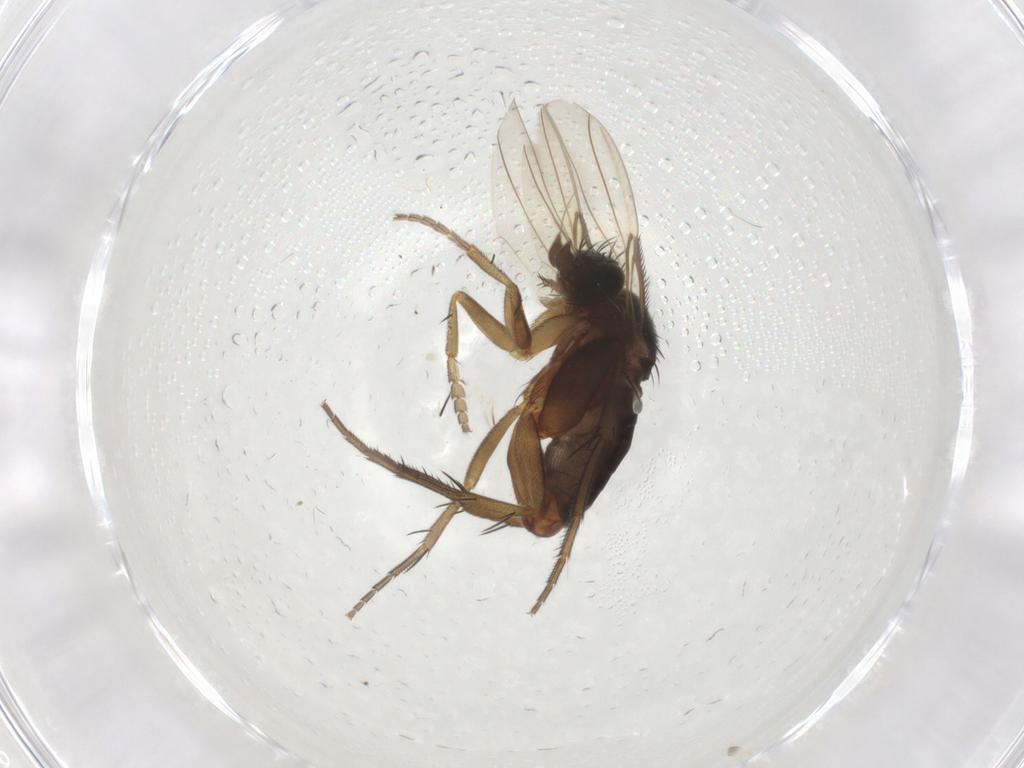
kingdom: Animalia
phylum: Arthropoda
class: Insecta
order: Diptera
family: Phoridae
